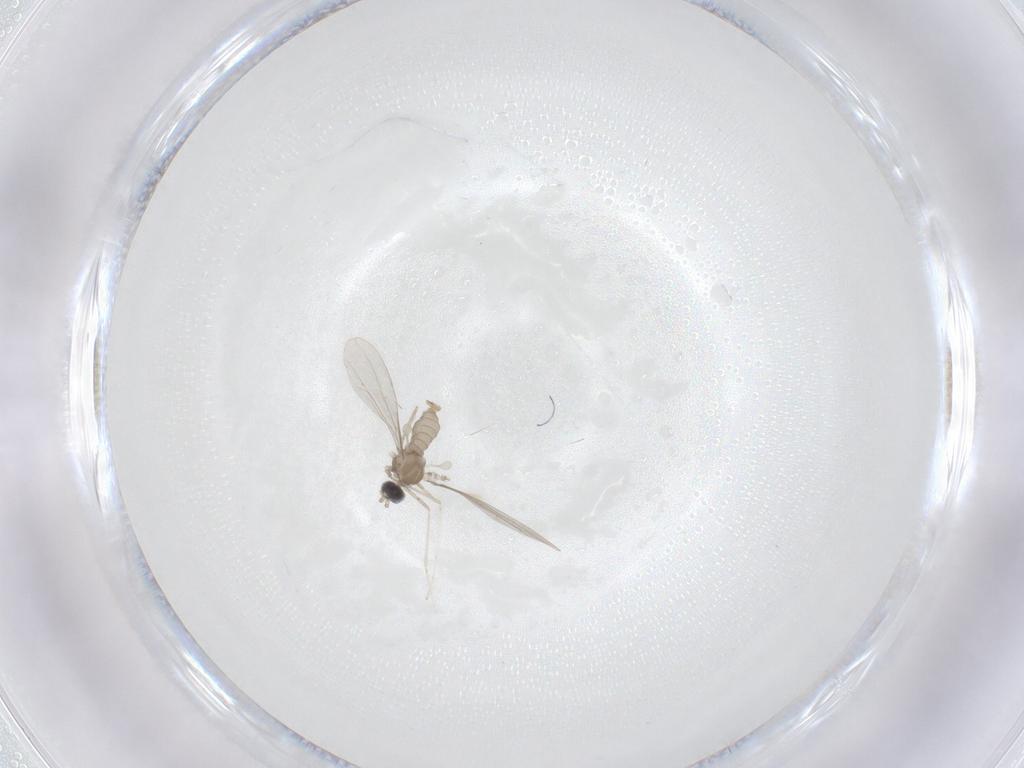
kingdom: Animalia
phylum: Arthropoda
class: Insecta
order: Diptera
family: Cecidomyiidae
